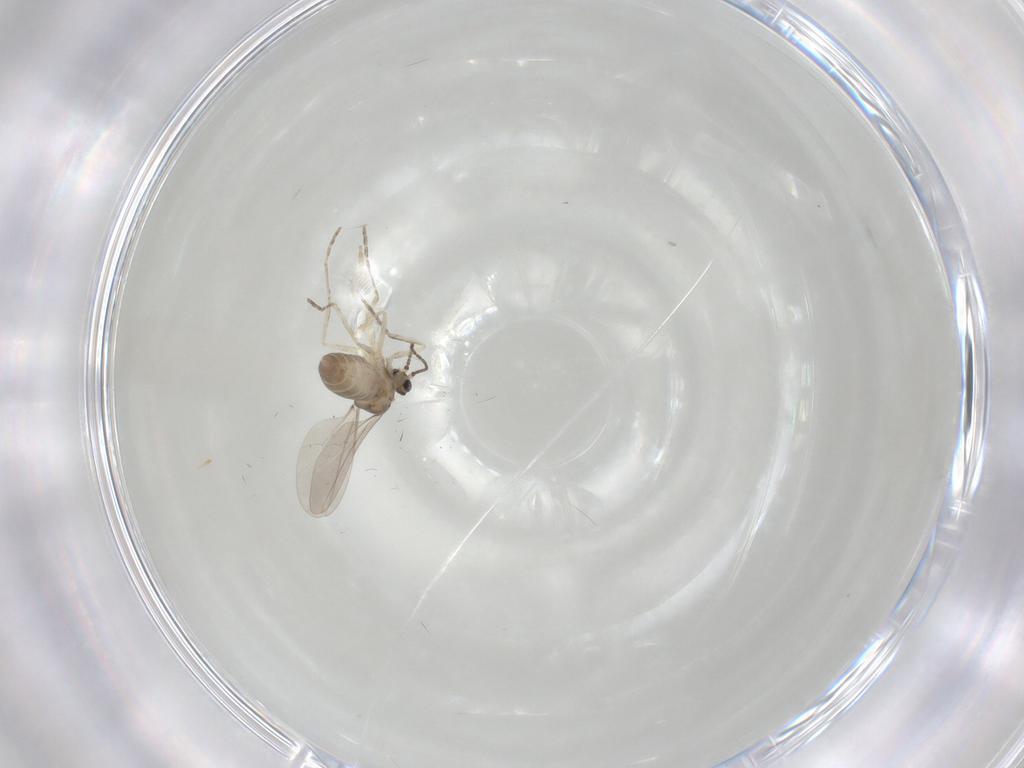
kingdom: Animalia
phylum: Arthropoda
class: Insecta
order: Diptera
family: Cecidomyiidae
